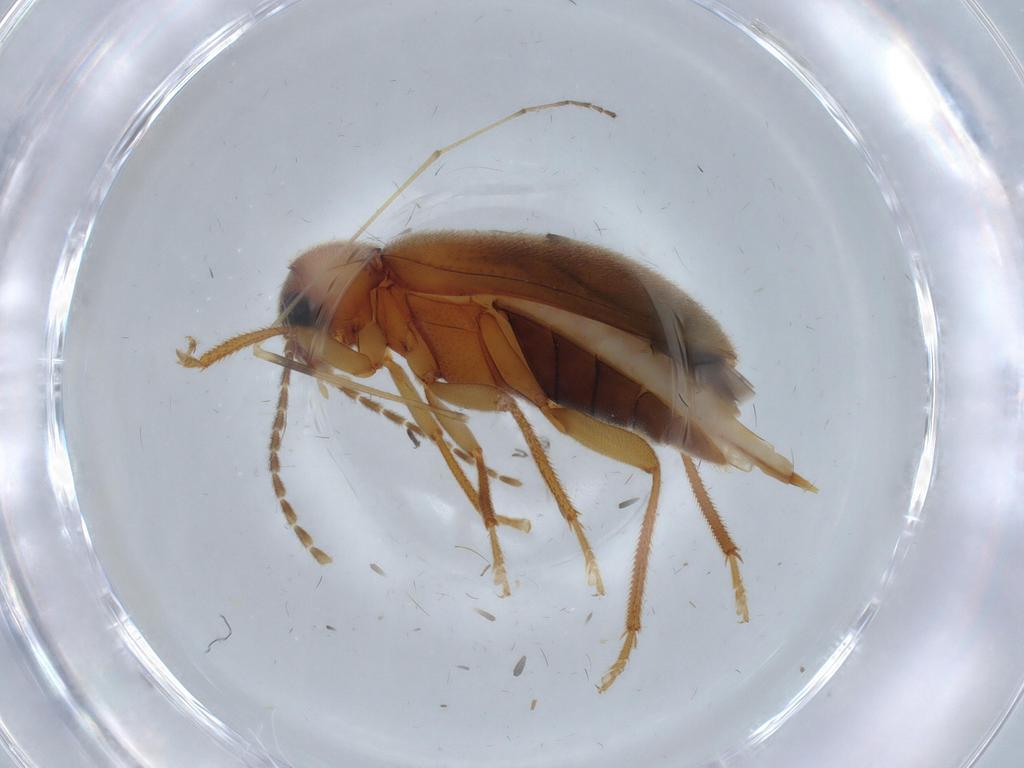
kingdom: Animalia
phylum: Arthropoda
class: Insecta
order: Coleoptera
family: Ptilodactylidae
